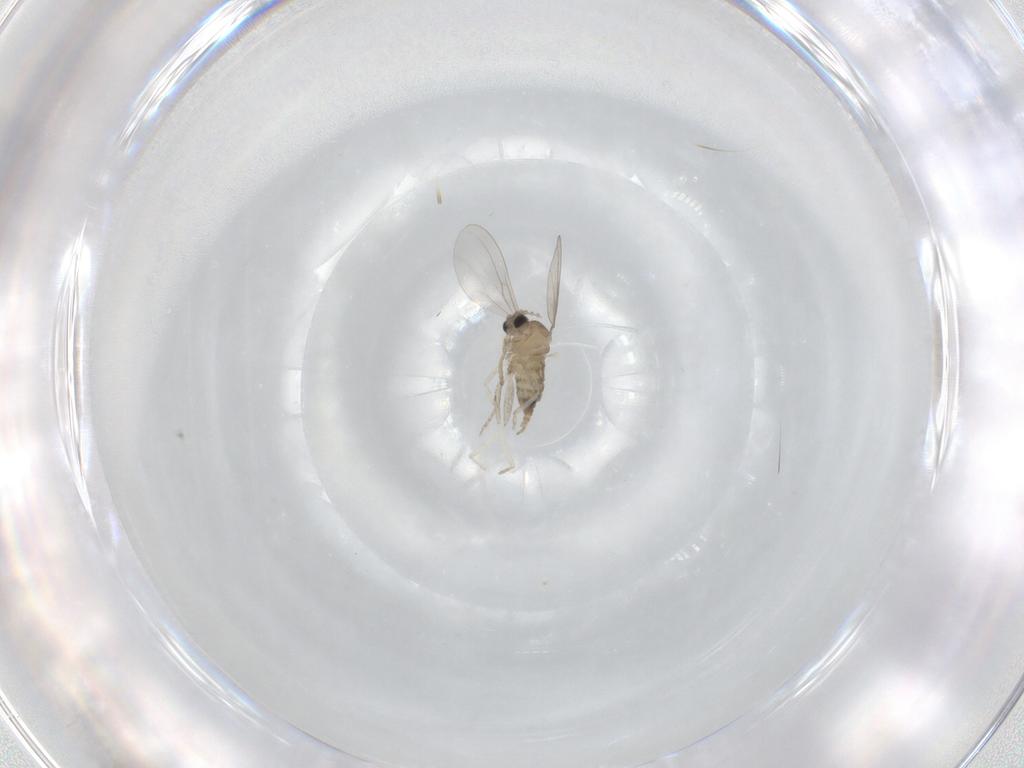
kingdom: Animalia
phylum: Arthropoda
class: Insecta
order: Diptera
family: Cecidomyiidae
